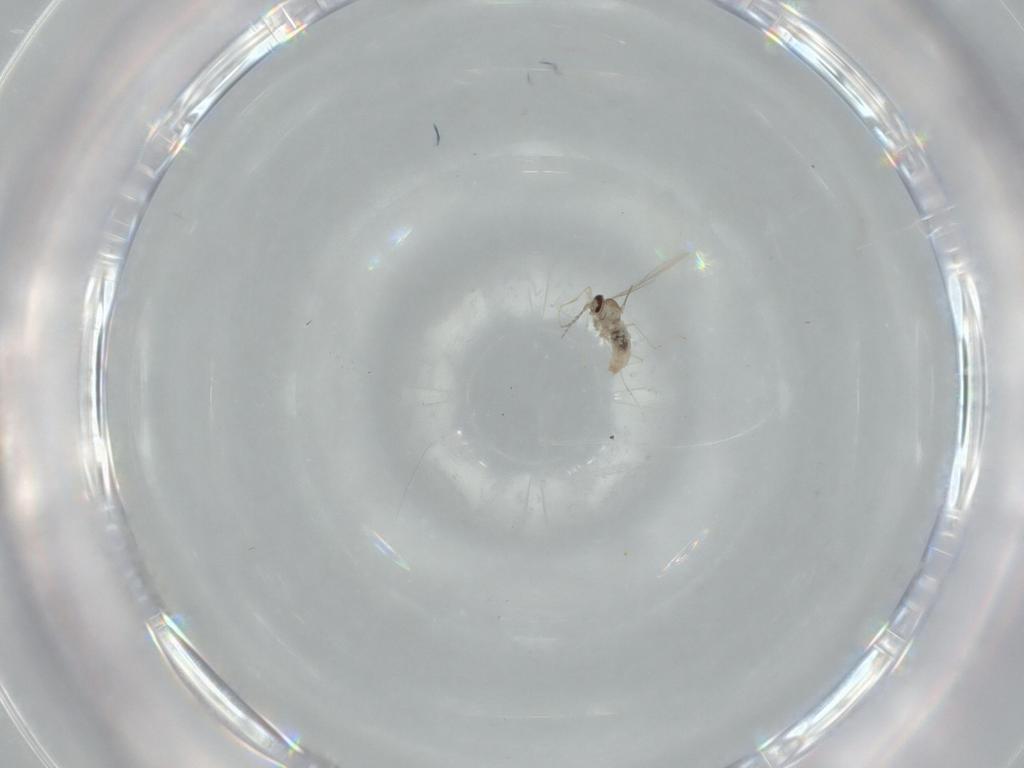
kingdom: Animalia
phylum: Arthropoda
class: Insecta
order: Diptera
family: Cecidomyiidae
